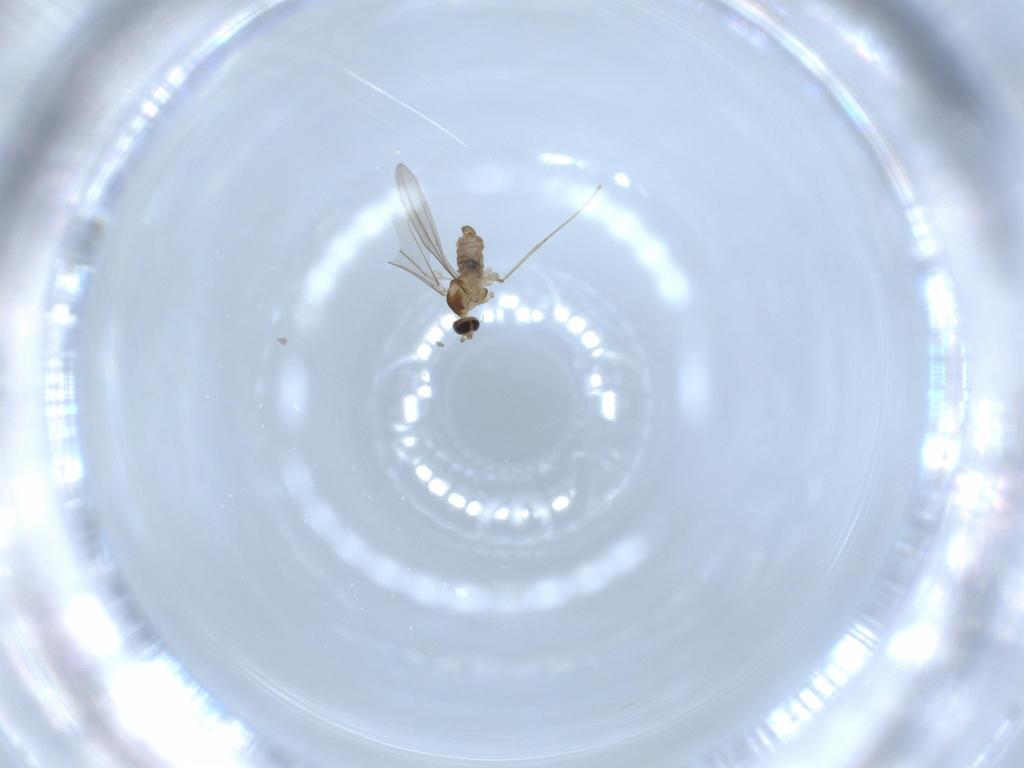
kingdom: Animalia
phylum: Arthropoda
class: Insecta
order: Diptera
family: Cecidomyiidae
